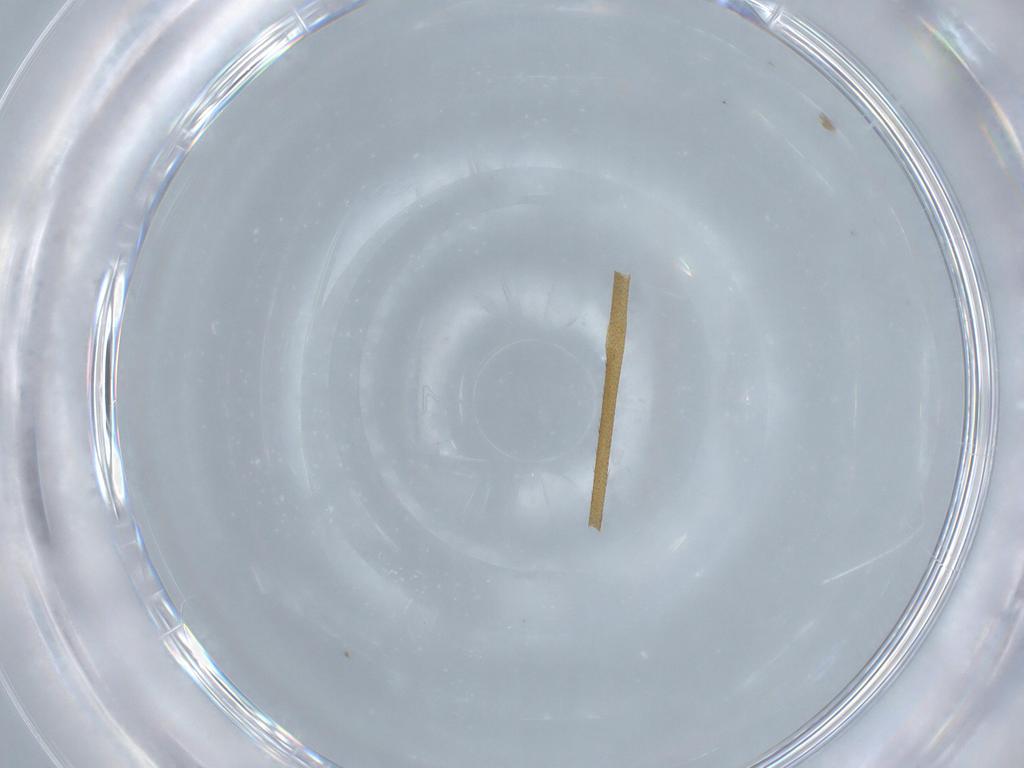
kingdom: Animalia
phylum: Arthropoda
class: Insecta
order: Diptera
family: Limoniidae
